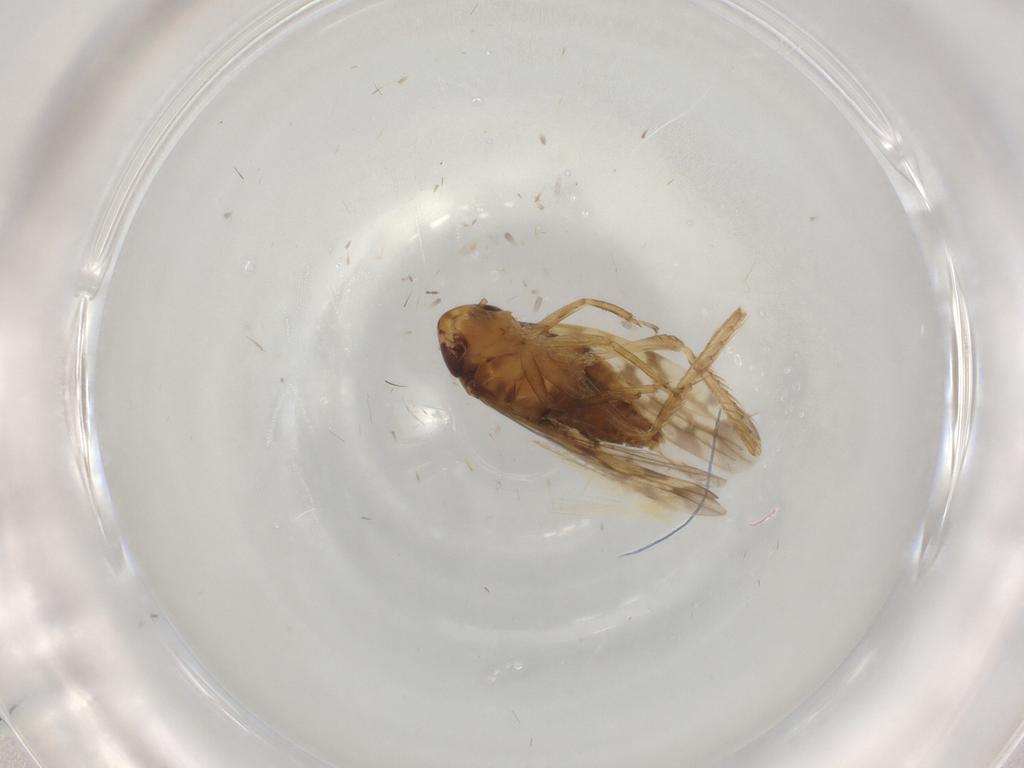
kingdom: Animalia
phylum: Arthropoda
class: Insecta
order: Hemiptera
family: Cicadellidae
